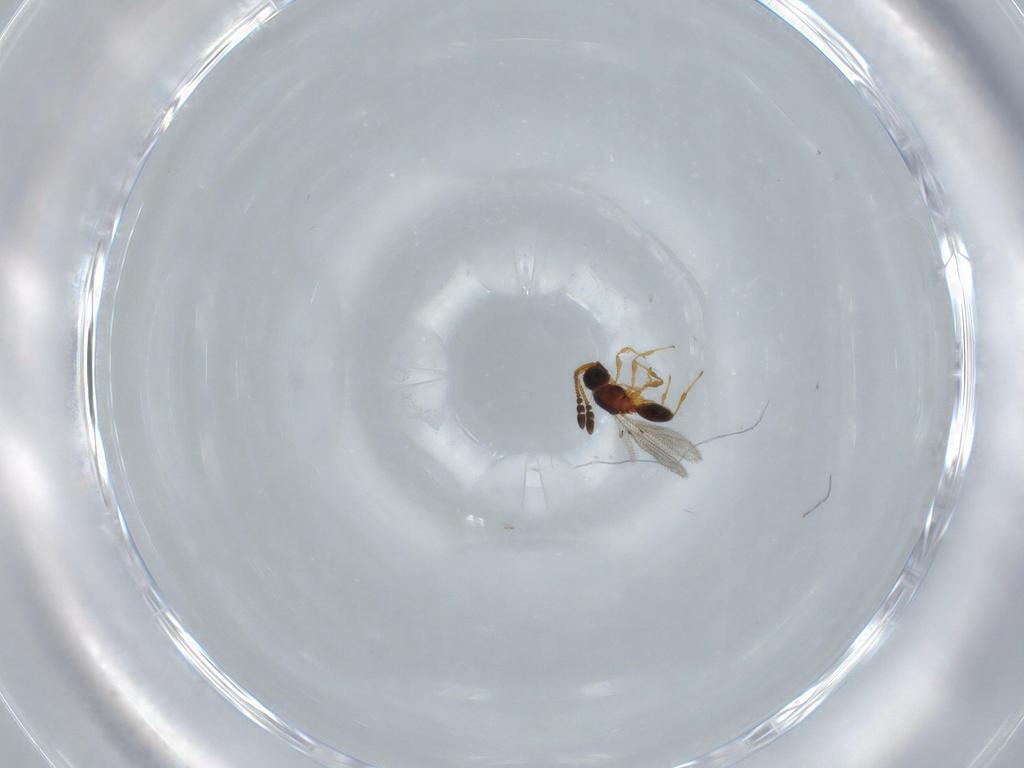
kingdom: Animalia
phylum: Arthropoda
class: Insecta
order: Hymenoptera
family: Diapriidae
